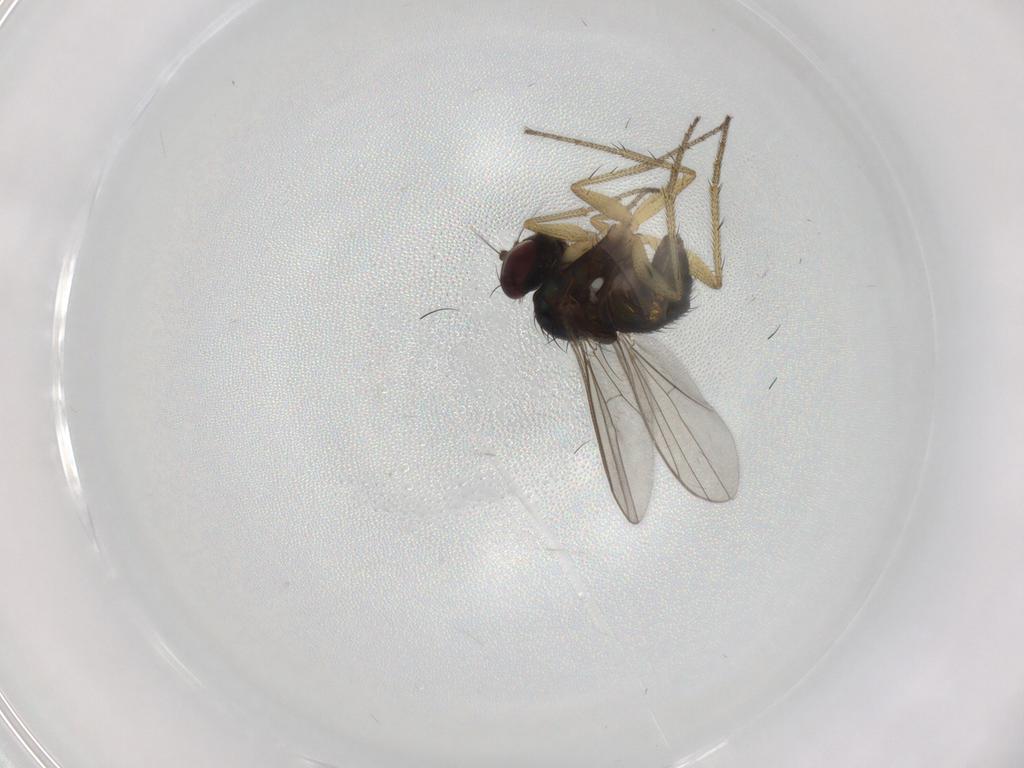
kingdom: Animalia
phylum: Arthropoda
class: Insecta
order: Diptera
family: Dolichopodidae
